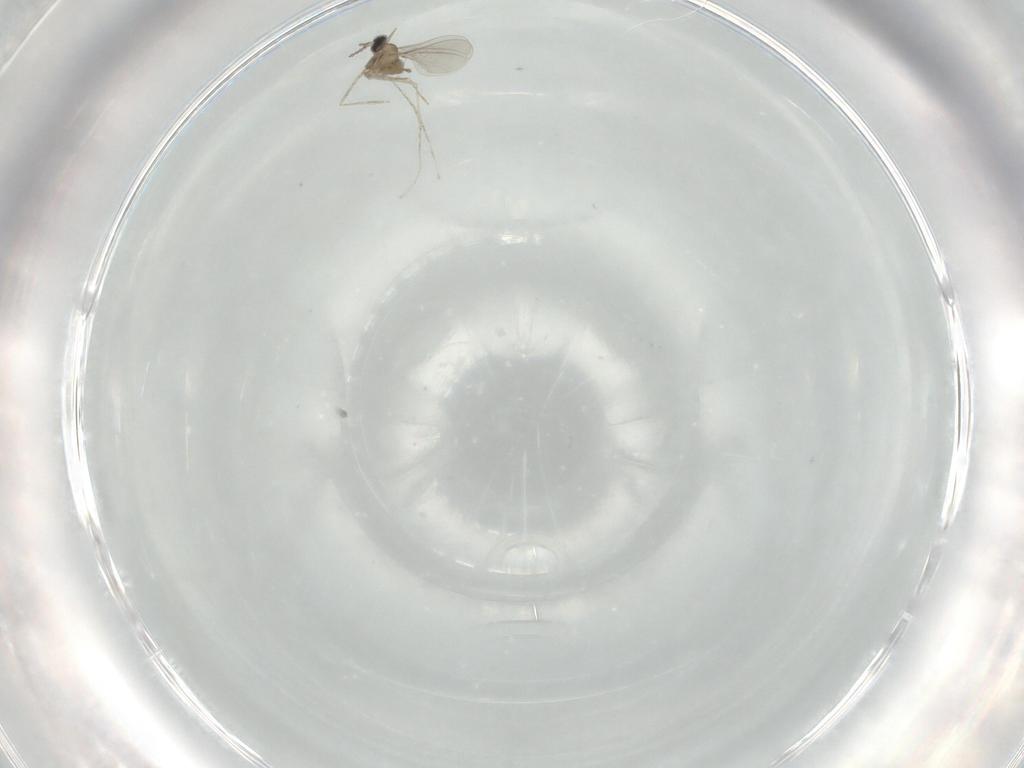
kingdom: Animalia
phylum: Arthropoda
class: Insecta
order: Diptera
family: Cecidomyiidae
